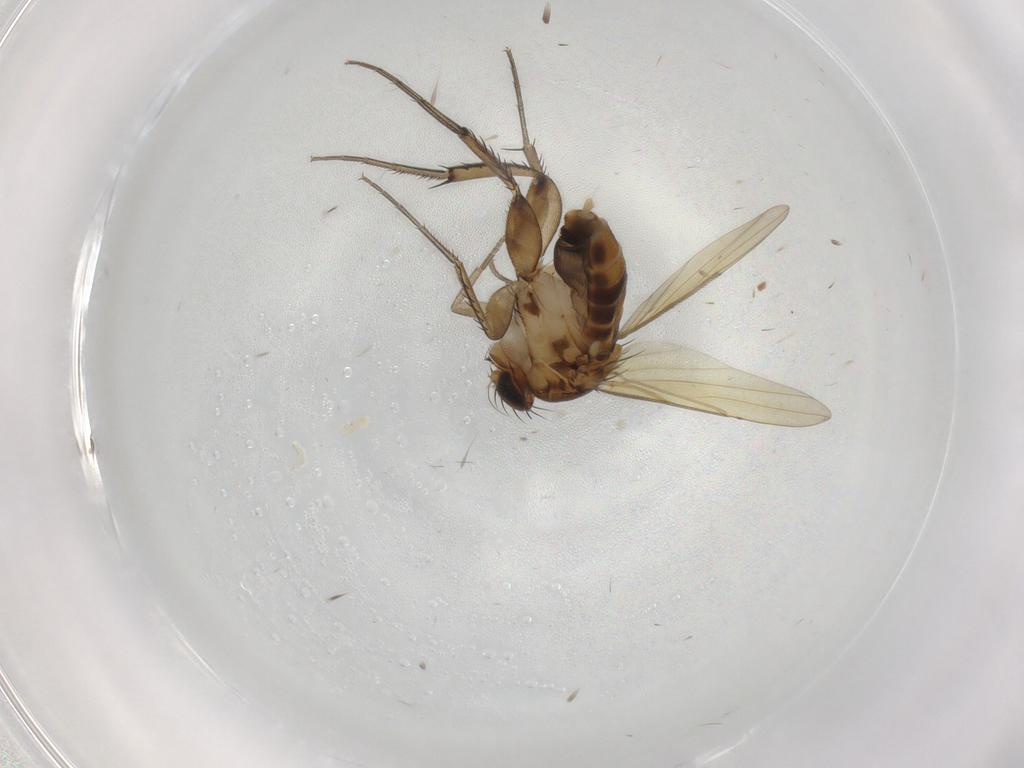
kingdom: Animalia
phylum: Arthropoda
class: Insecta
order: Diptera
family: Phoridae
